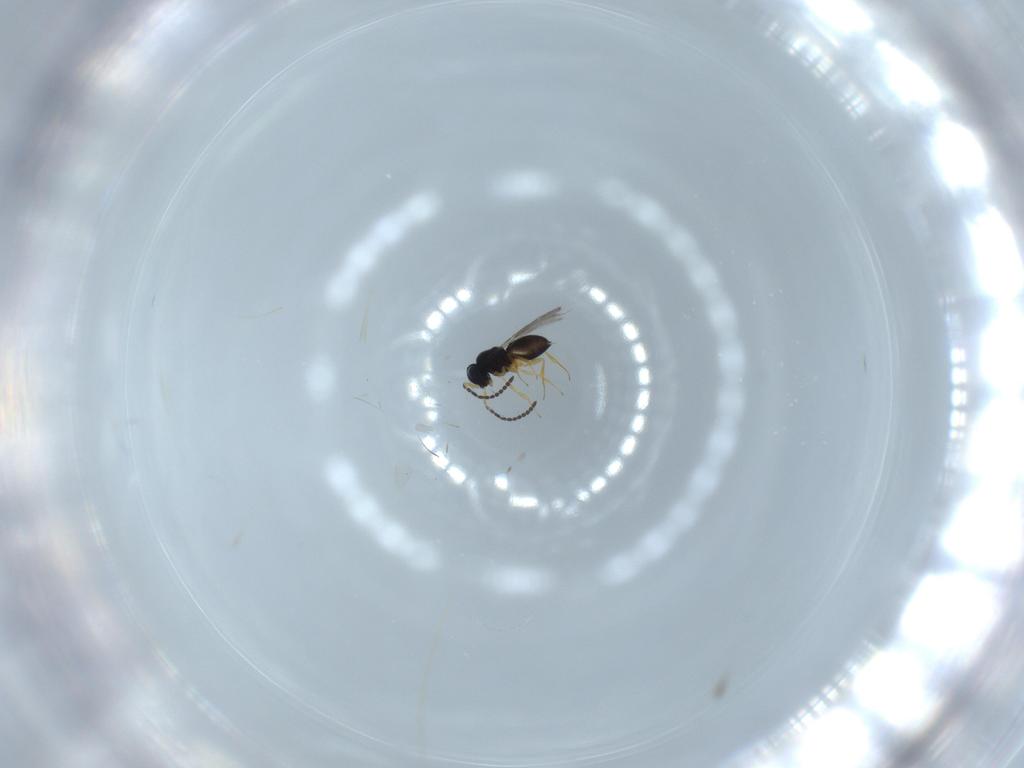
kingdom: Animalia
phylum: Arthropoda
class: Insecta
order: Hymenoptera
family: Scelionidae
